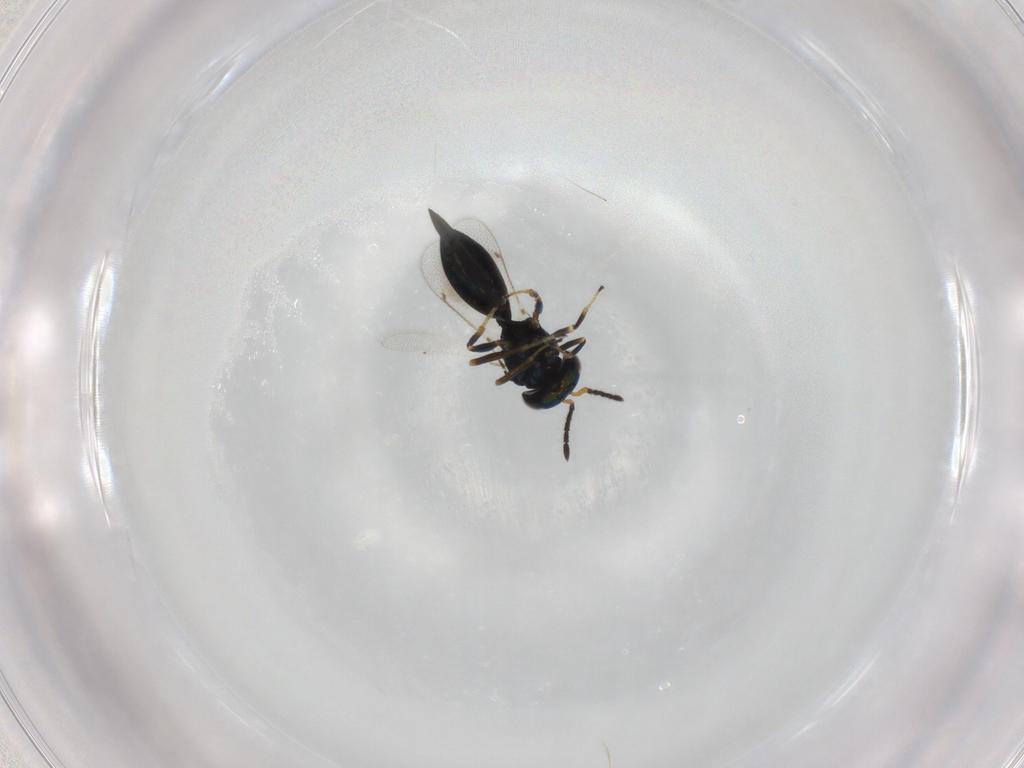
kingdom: Animalia
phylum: Arthropoda
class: Insecta
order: Hymenoptera
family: Eulophidae
